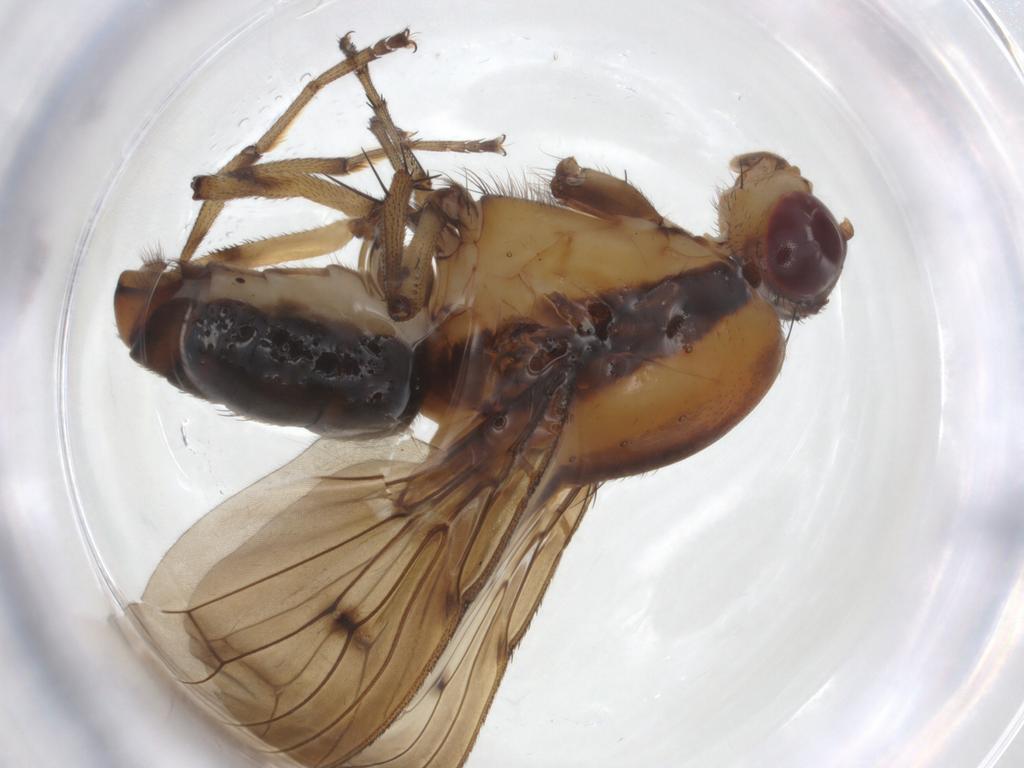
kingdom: Animalia
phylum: Arthropoda
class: Insecta
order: Diptera
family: Heleomyzidae
